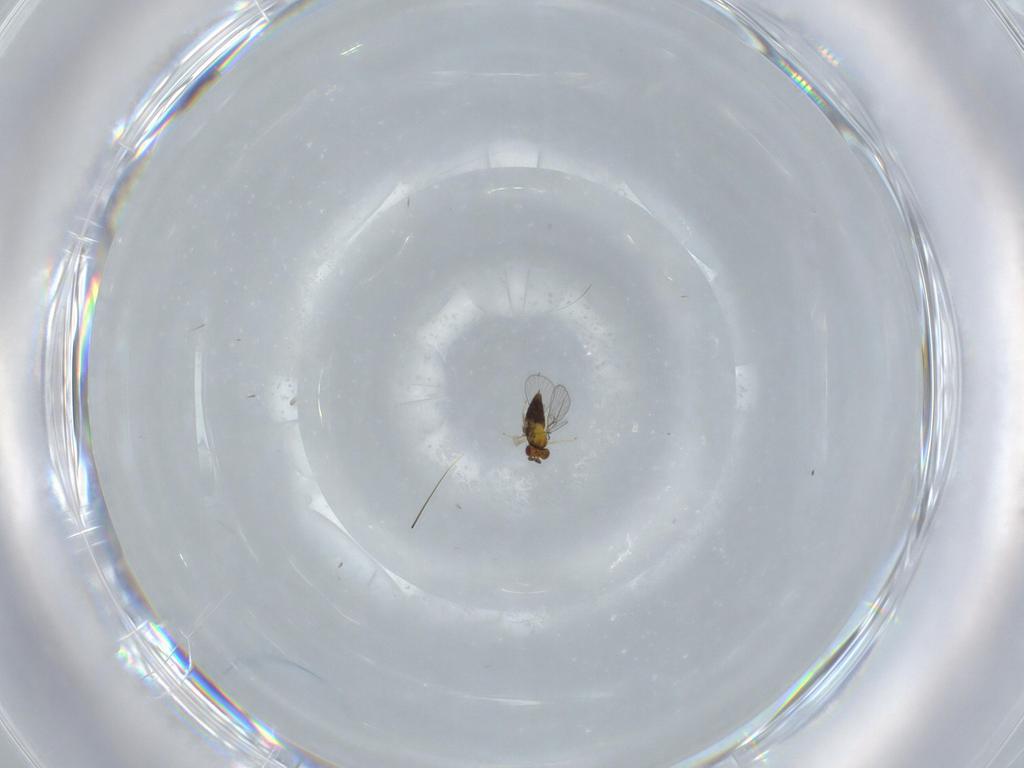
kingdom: Animalia
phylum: Arthropoda
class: Insecta
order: Hymenoptera
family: Trichogrammatidae
